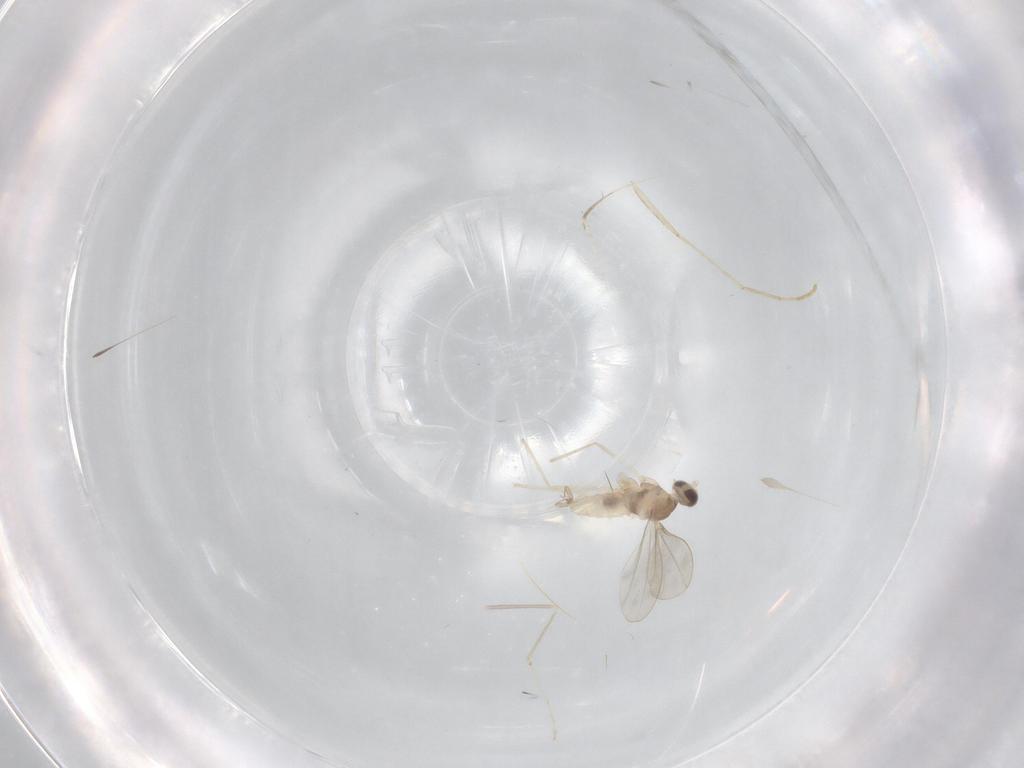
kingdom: Animalia
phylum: Arthropoda
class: Insecta
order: Diptera
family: Cecidomyiidae
